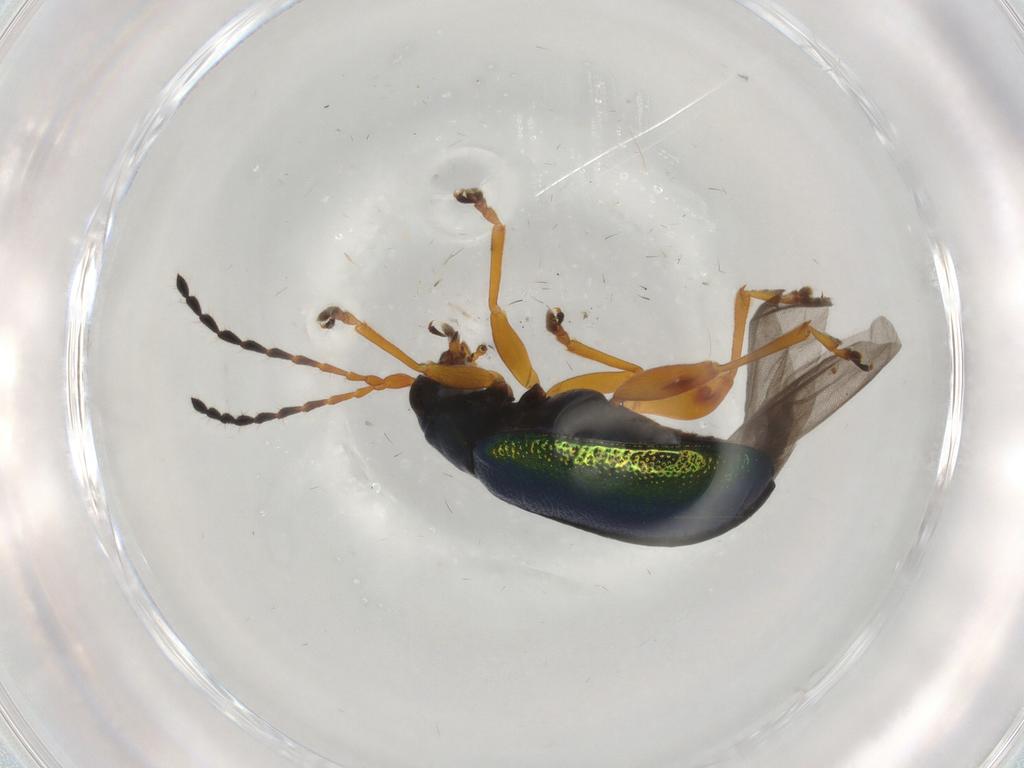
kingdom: Animalia
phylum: Arthropoda
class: Insecta
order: Coleoptera
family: Chrysomelidae
